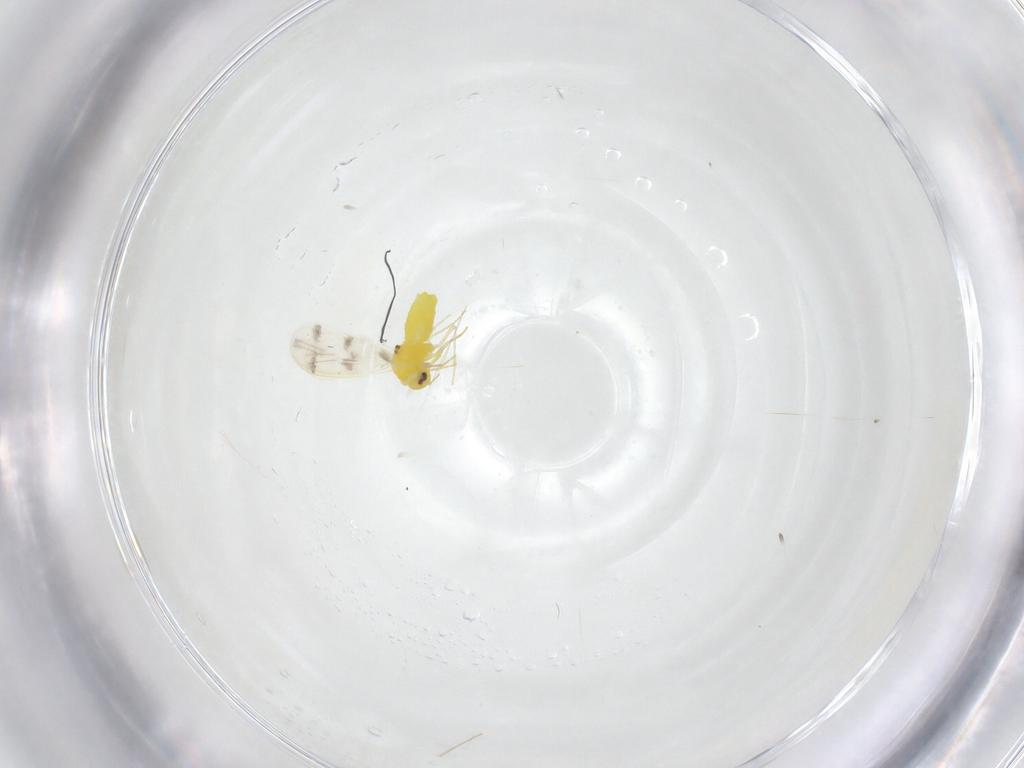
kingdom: Animalia
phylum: Arthropoda
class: Insecta
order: Hemiptera
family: Aleyrodidae
